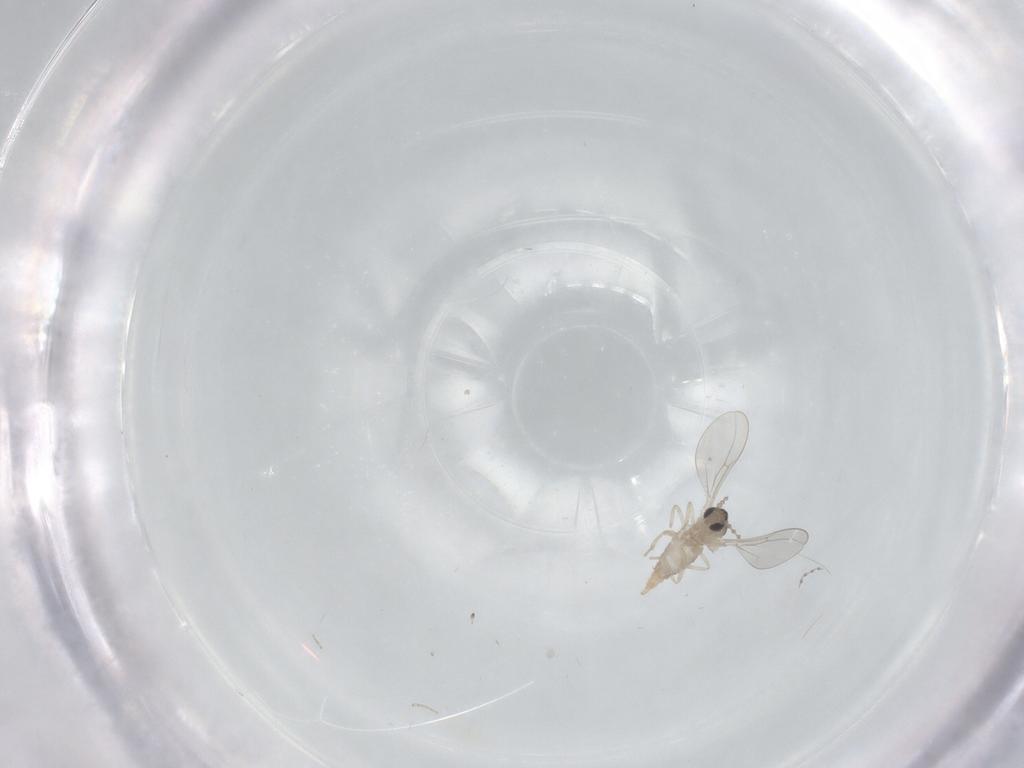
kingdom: Animalia
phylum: Arthropoda
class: Insecta
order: Diptera
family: Cecidomyiidae
